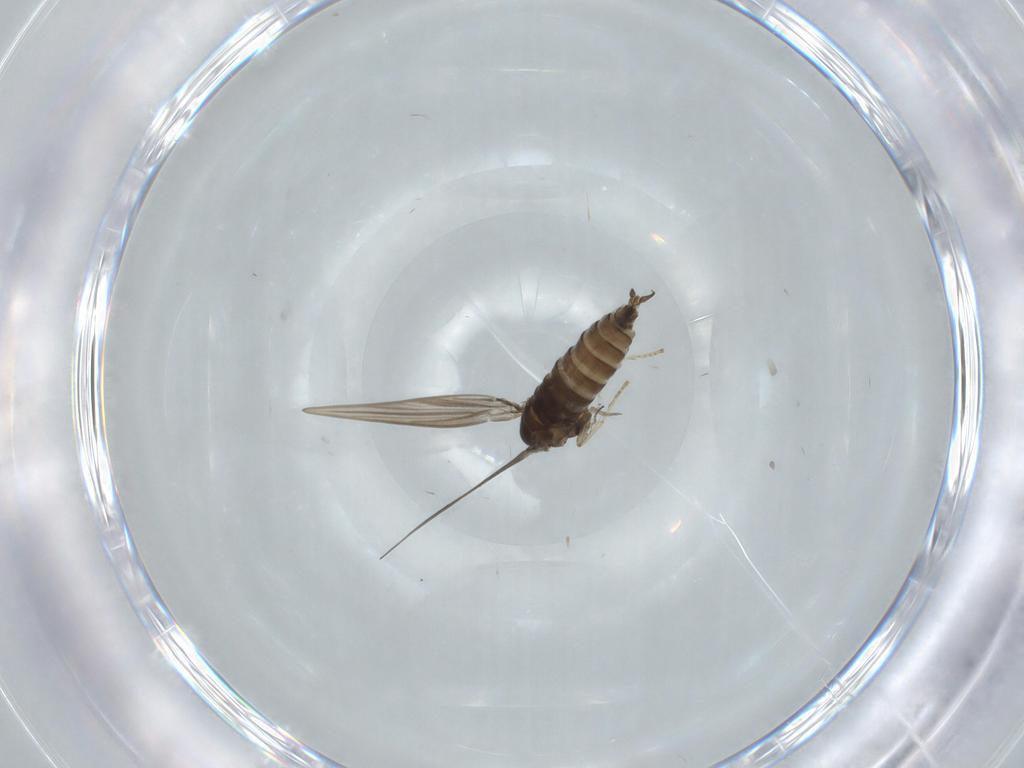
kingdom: Animalia
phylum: Arthropoda
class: Insecta
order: Diptera
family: Psychodidae
